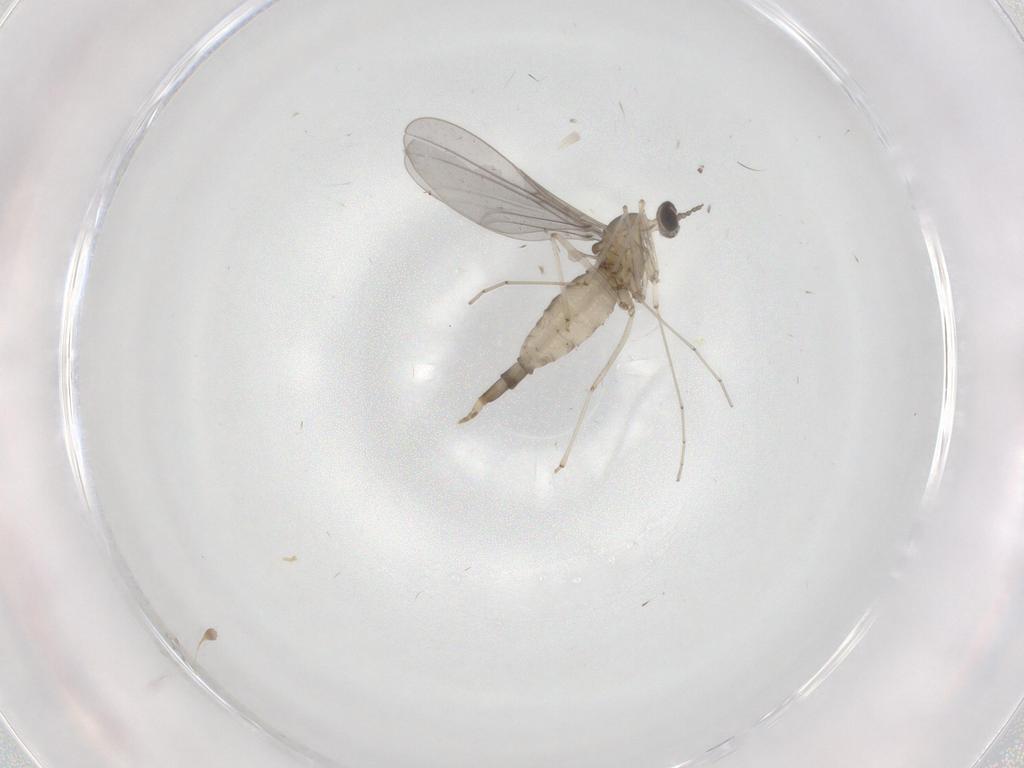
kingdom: Animalia
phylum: Arthropoda
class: Insecta
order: Diptera
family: Cecidomyiidae
